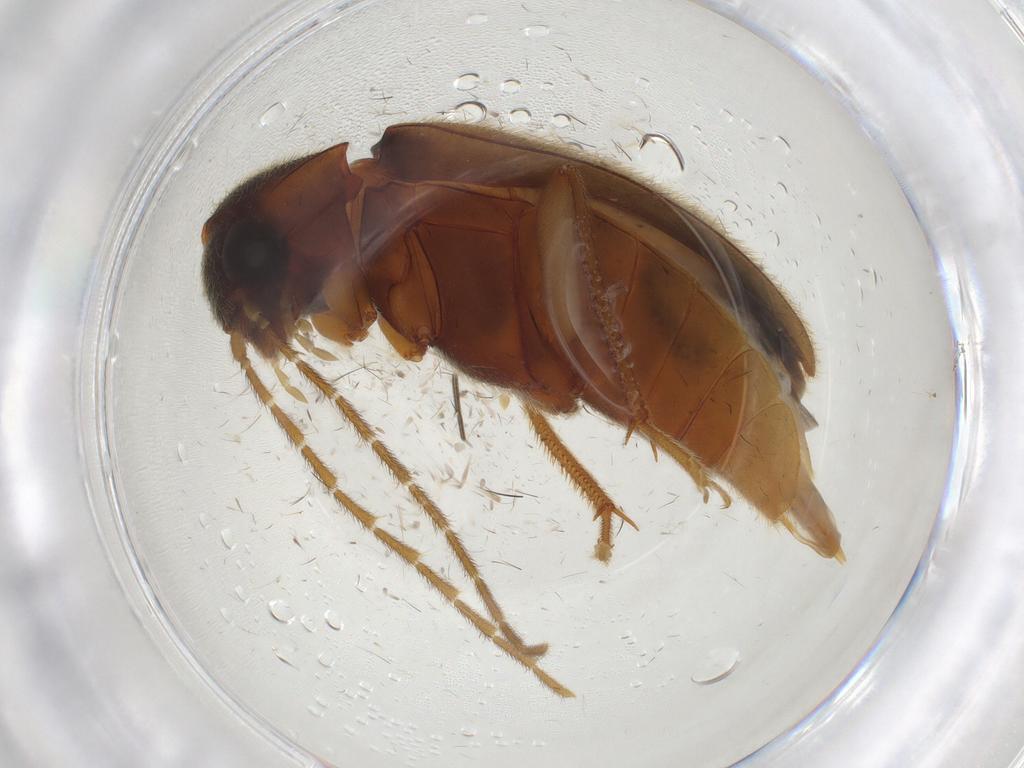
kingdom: Animalia
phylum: Arthropoda
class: Insecta
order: Coleoptera
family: Ptilodactylidae
